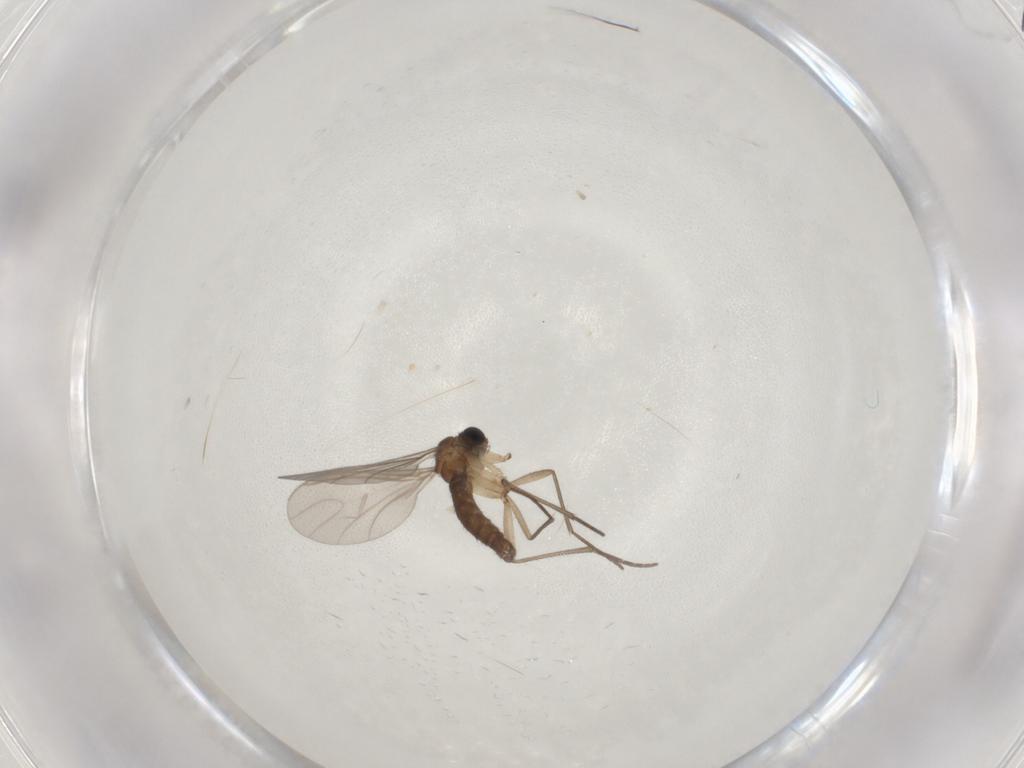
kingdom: Animalia
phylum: Arthropoda
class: Insecta
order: Diptera
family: Sciaridae
